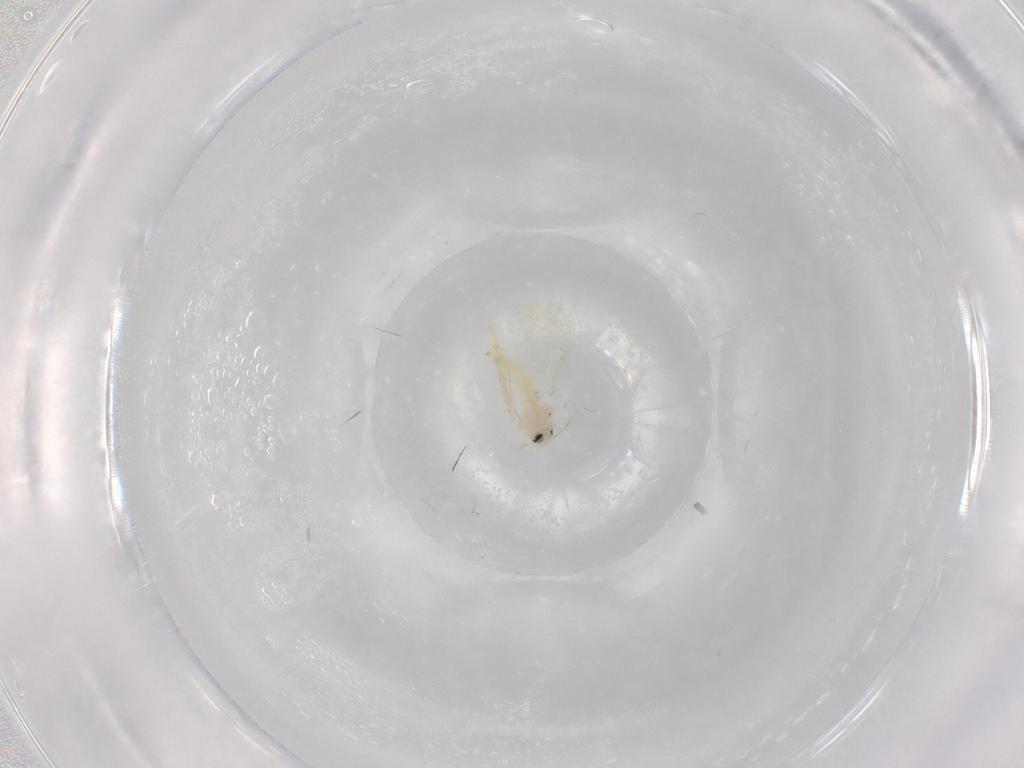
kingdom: Animalia
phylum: Arthropoda
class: Insecta
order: Hemiptera
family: Aleyrodidae
